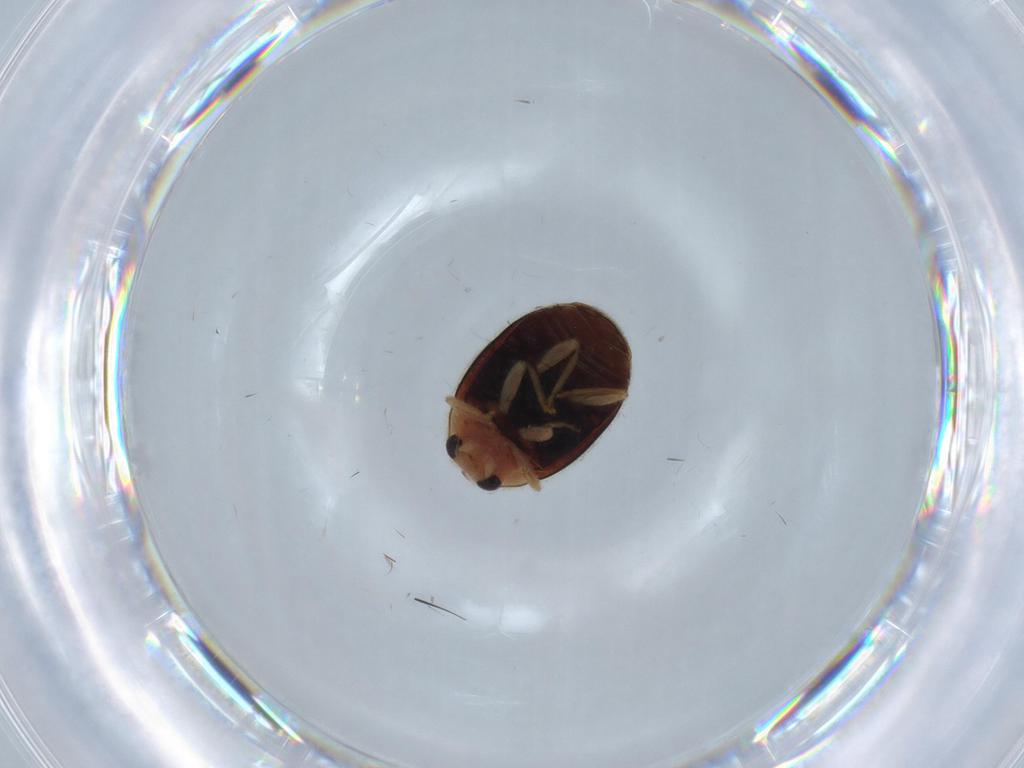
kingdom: Animalia
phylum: Arthropoda
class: Insecta
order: Coleoptera
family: Coccinellidae
